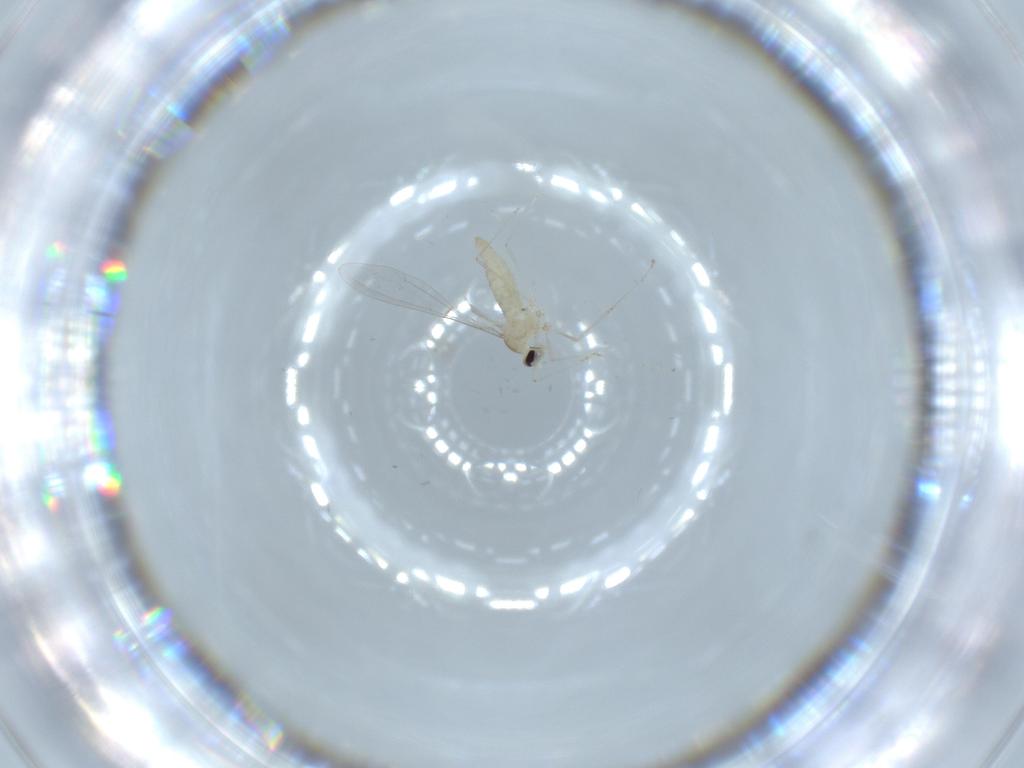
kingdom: Animalia
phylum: Arthropoda
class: Insecta
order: Diptera
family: Cecidomyiidae
